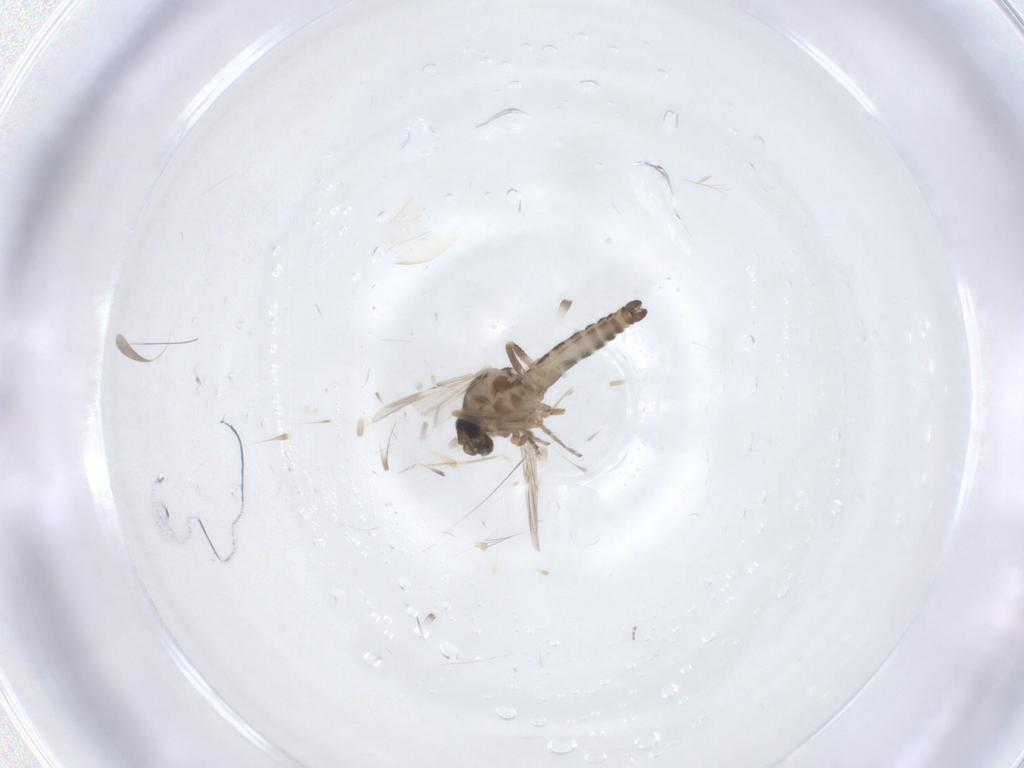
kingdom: Animalia
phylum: Arthropoda
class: Insecta
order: Diptera
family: Ceratopogonidae
